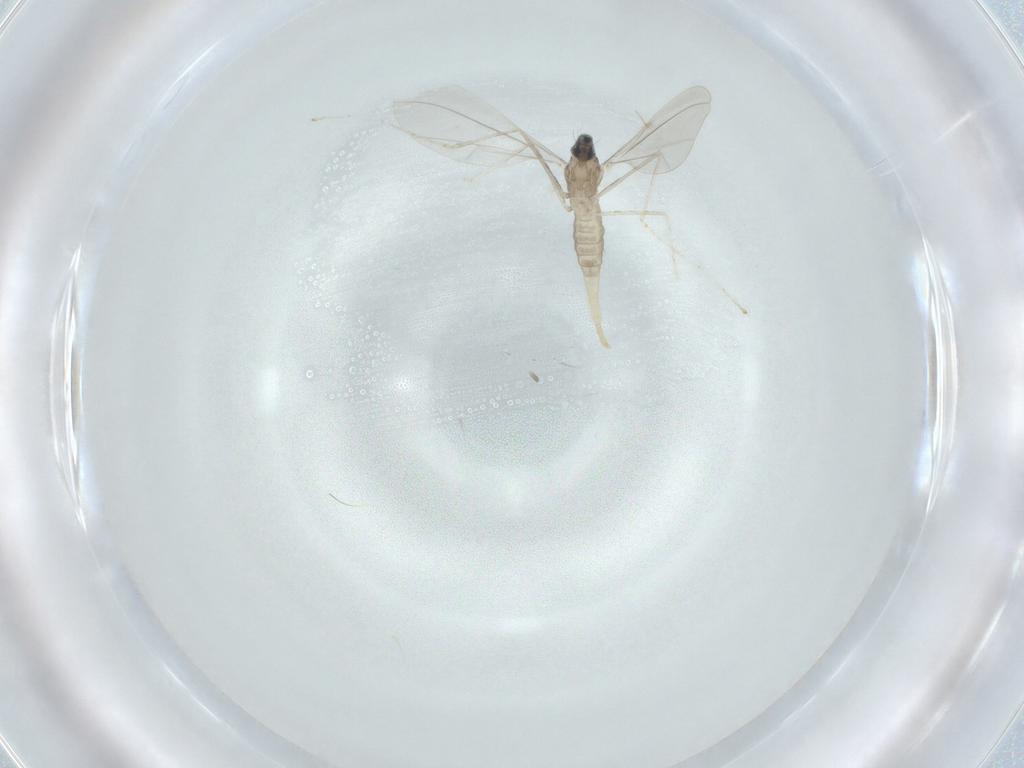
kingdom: Animalia
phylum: Arthropoda
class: Insecta
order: Diptera
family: Cecidomyiidae
